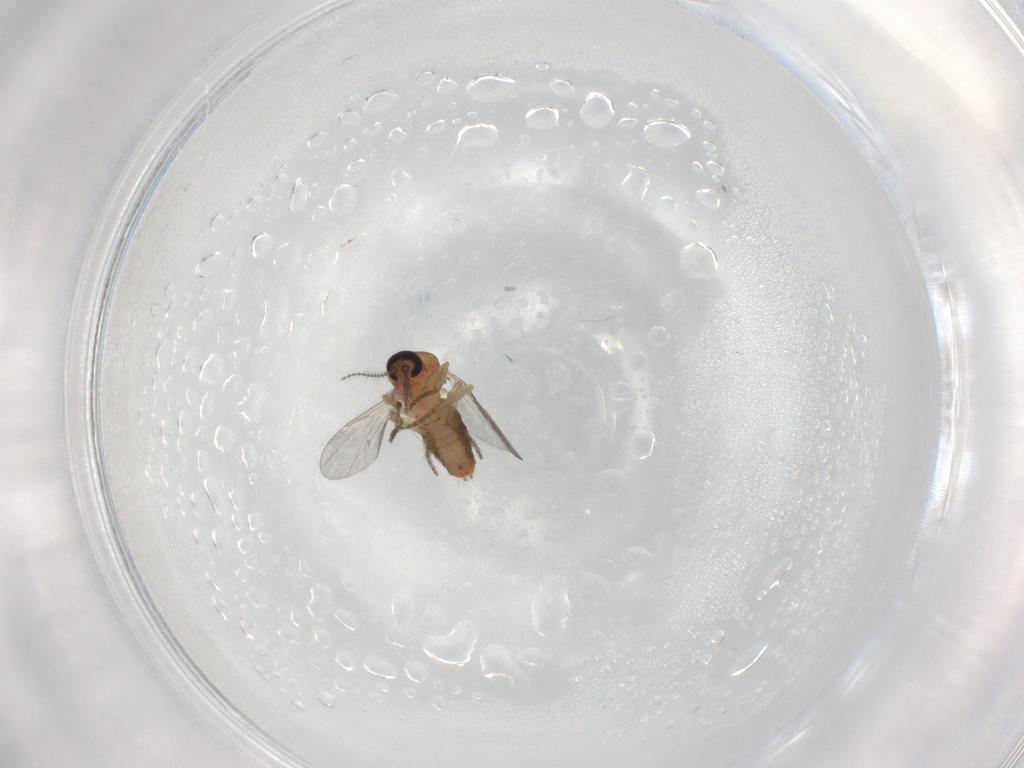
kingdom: Animalia
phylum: Arthropoda
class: Insecta
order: Diptera
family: Ceratopogonidae
